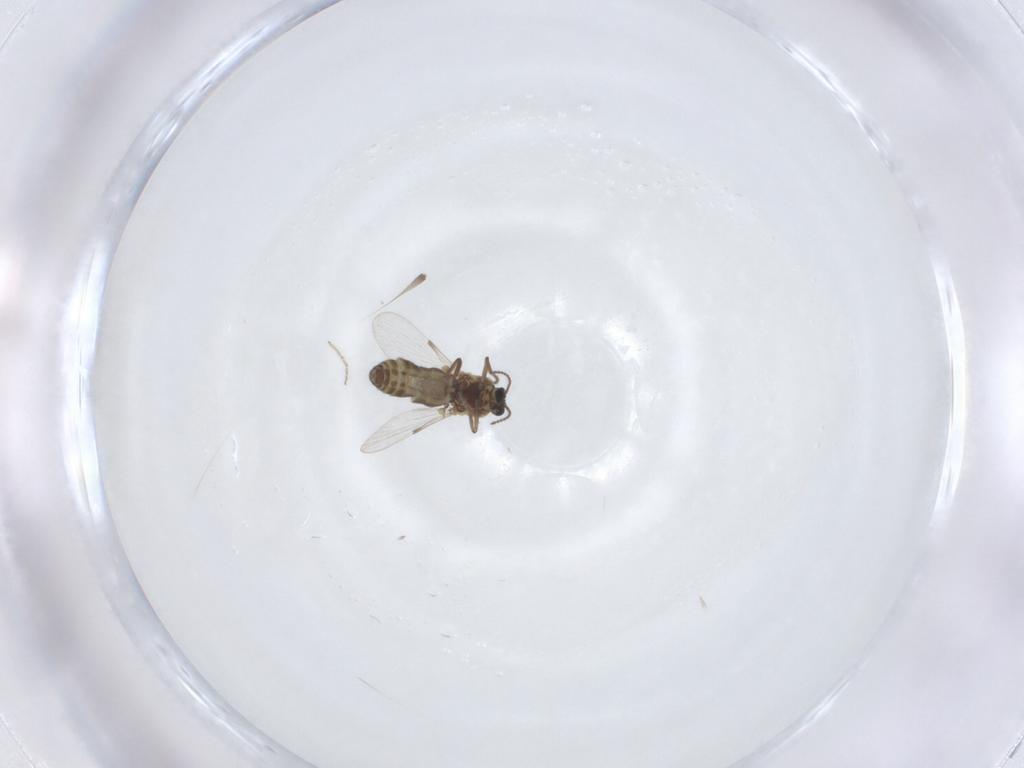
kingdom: Animalia
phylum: Arthropoda
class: Insecta
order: Diptera
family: Ceratopogonidae
